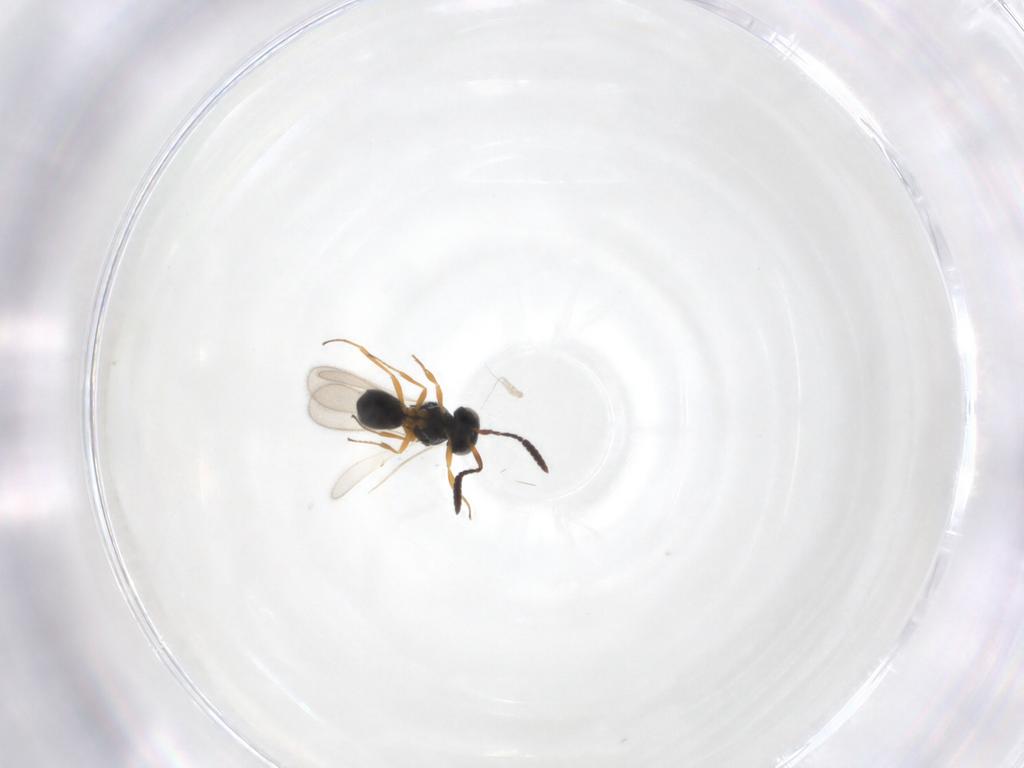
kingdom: Animalia
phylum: Arthropoda
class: Insecta
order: Hymenoptera
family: Scelionidae
